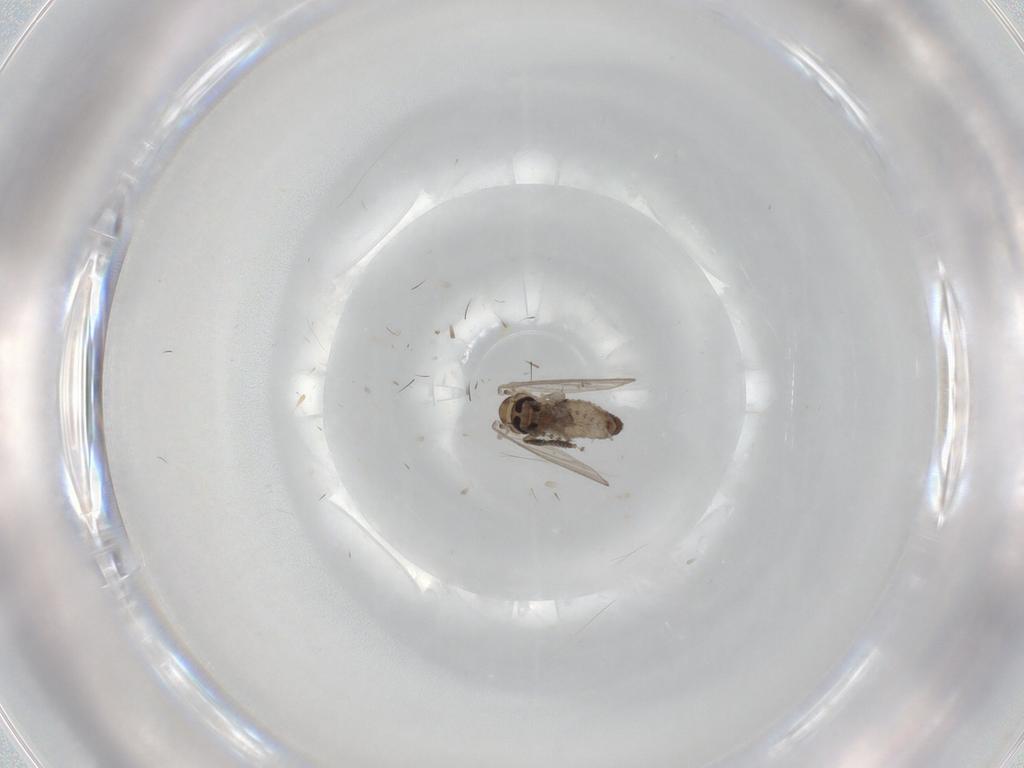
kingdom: Animalia
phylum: Arthropoda
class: Insecta
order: Diptera
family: Psychodidae
